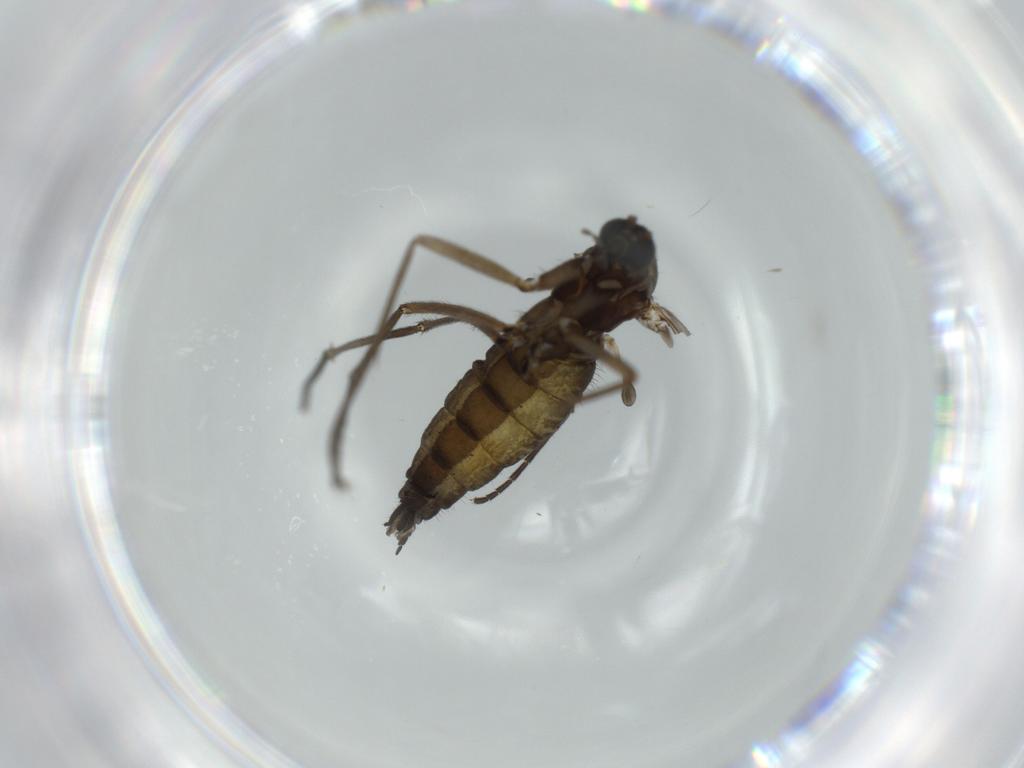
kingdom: Animalia
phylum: Arthropoda
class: Insecta
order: Diptera
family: Sciaridae
